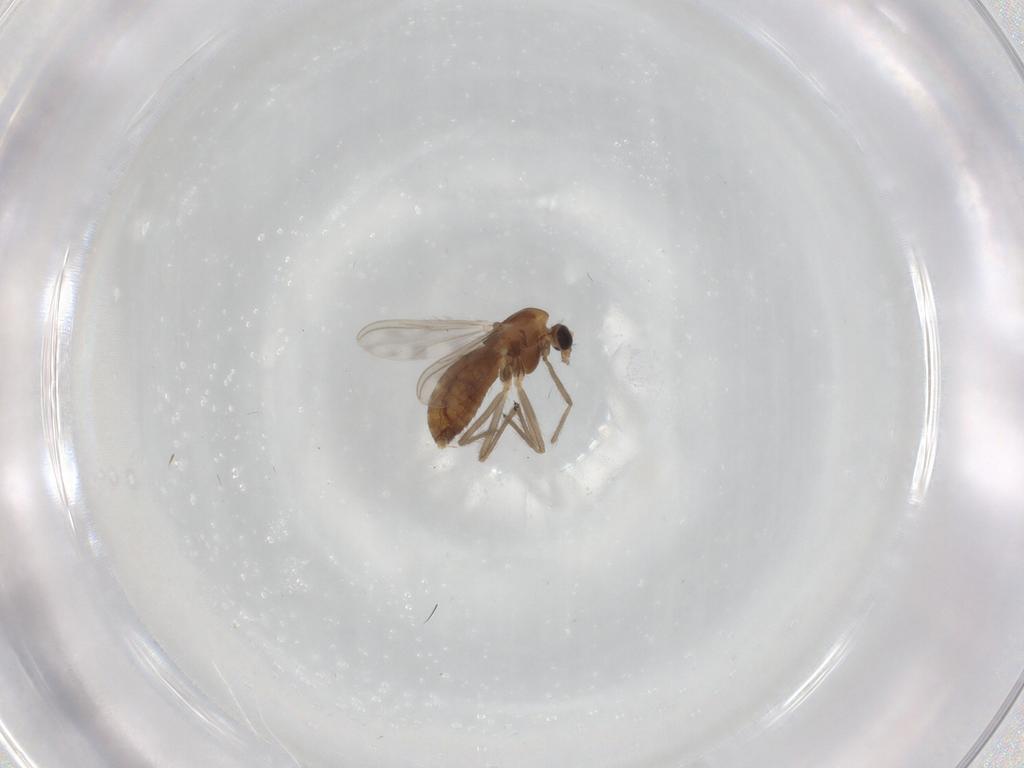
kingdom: Animalia
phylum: Arthropoda
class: Insecta
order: Diptera
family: Chironomidae
